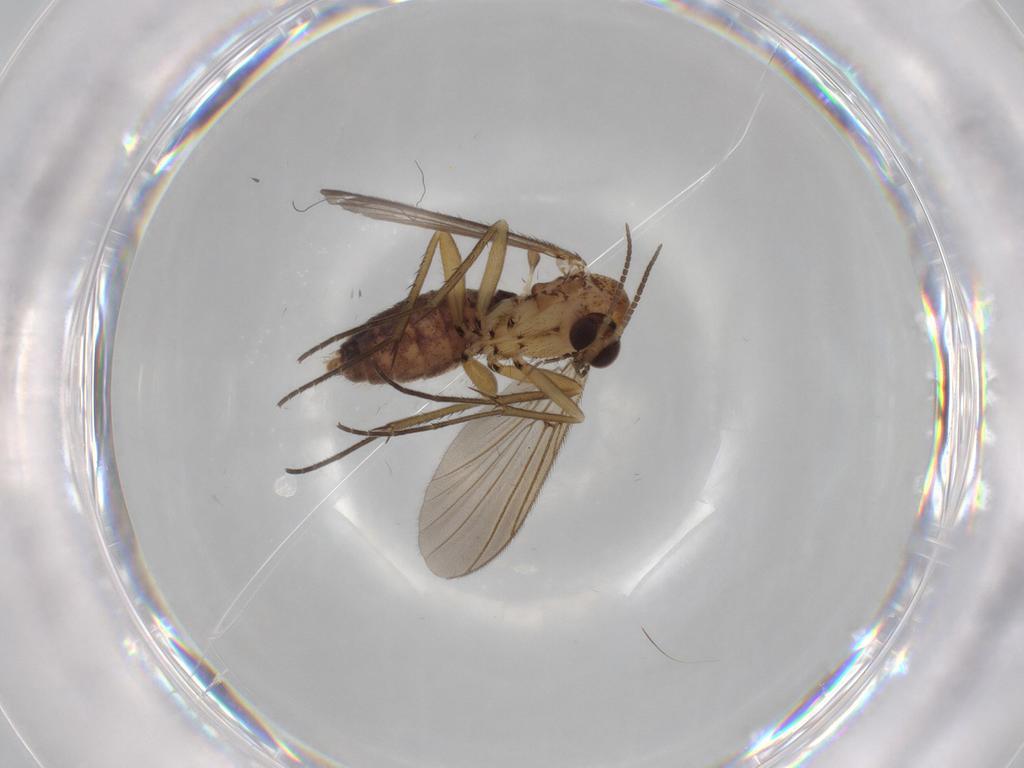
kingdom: Animalia
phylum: Arthropoda
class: Insecta
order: Diptera
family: Mycetophilidae
